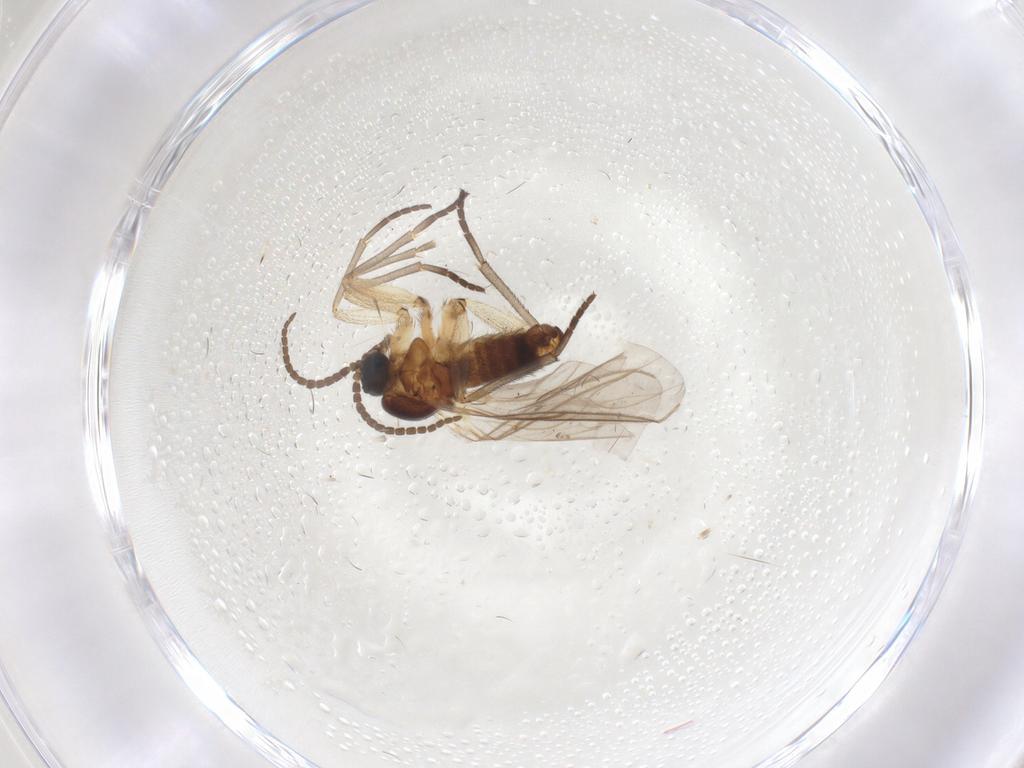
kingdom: Animalia
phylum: Arthropoda
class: Insecta
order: Diptera
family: Sciaridae
